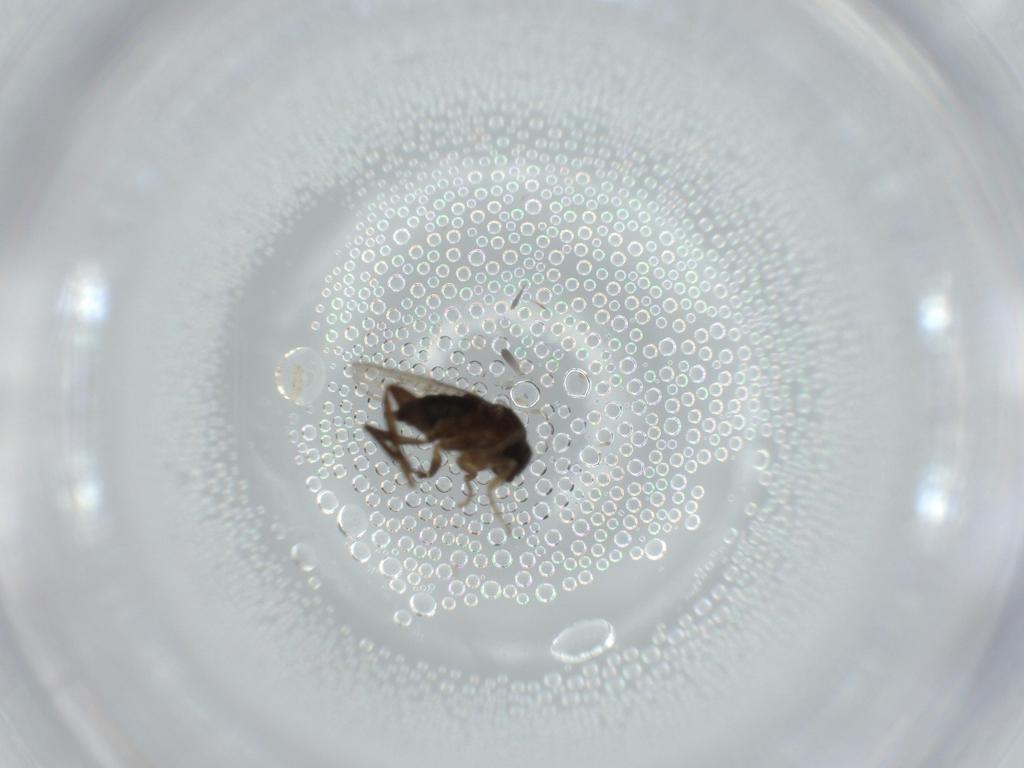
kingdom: Animalia
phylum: Arthropoda
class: Insecta
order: Diptera
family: Phoridae
